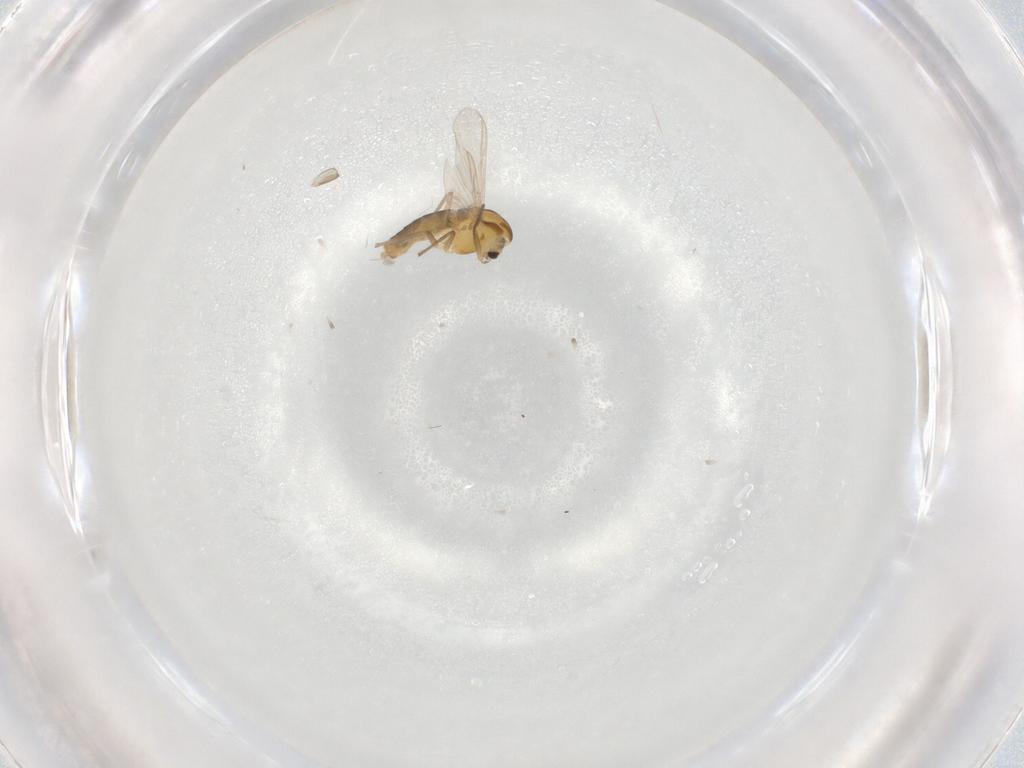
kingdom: Animalia
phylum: Arthropoda
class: Insecta
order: Diptera
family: Chironomidae
